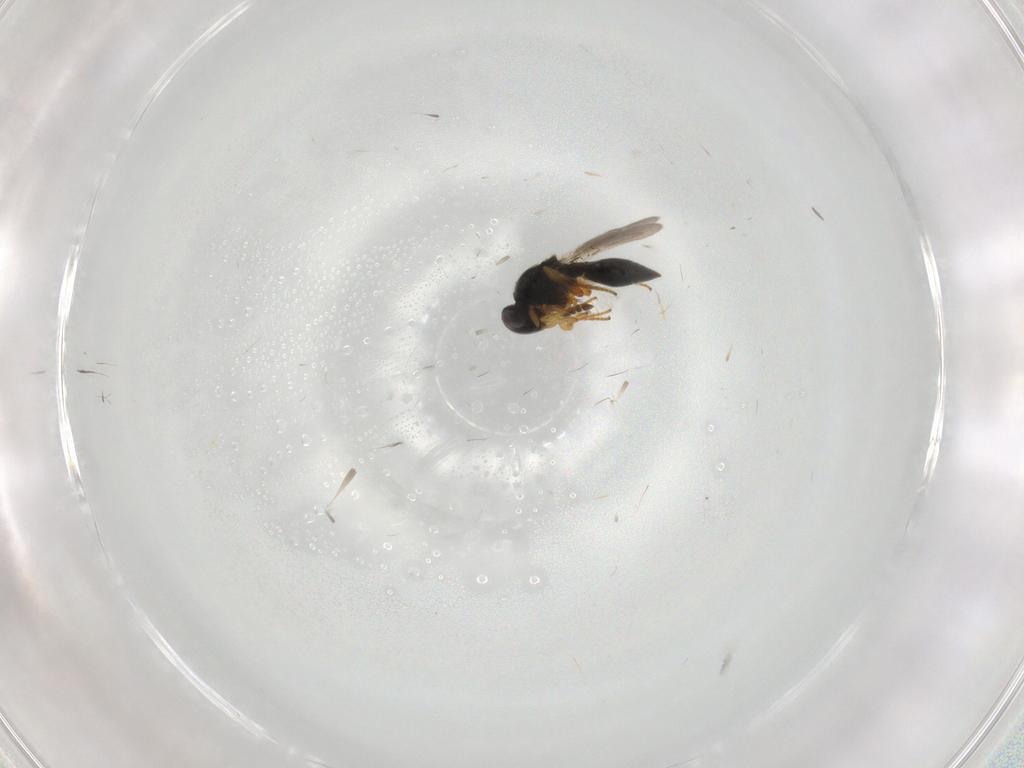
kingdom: Animalia
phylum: Arthropoda
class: Insecta
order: Hymenoptera
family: Platygastridae
